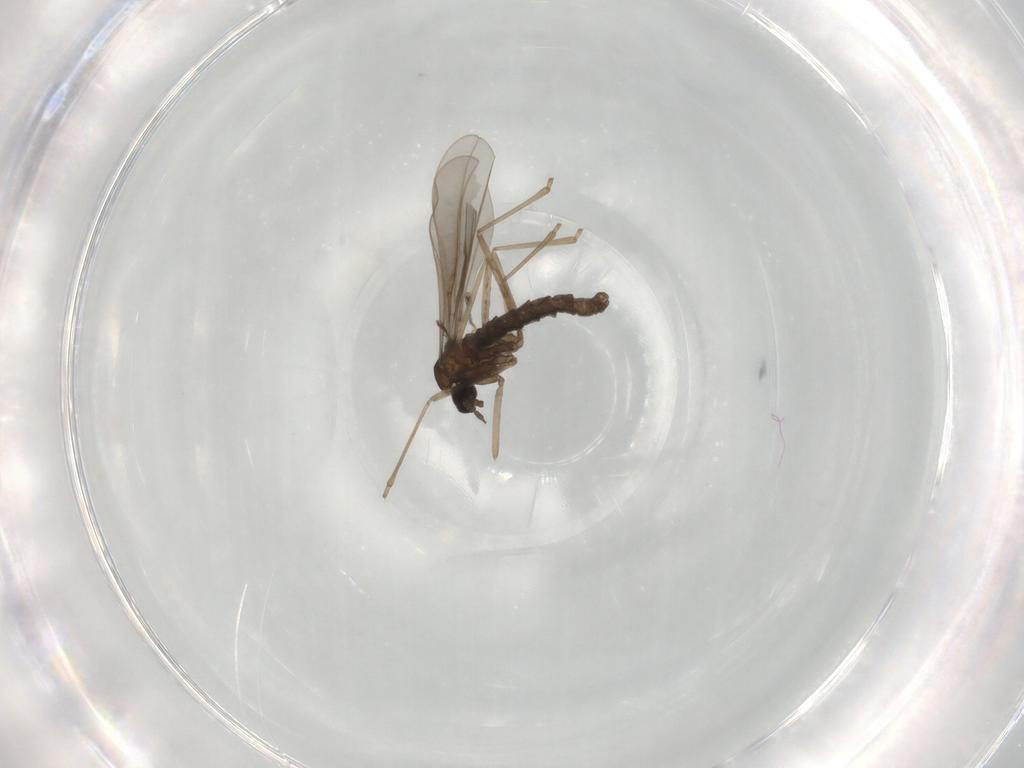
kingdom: Animalia
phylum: Arthropoda
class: Insecta
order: Diptera
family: Cecidomyiidae
